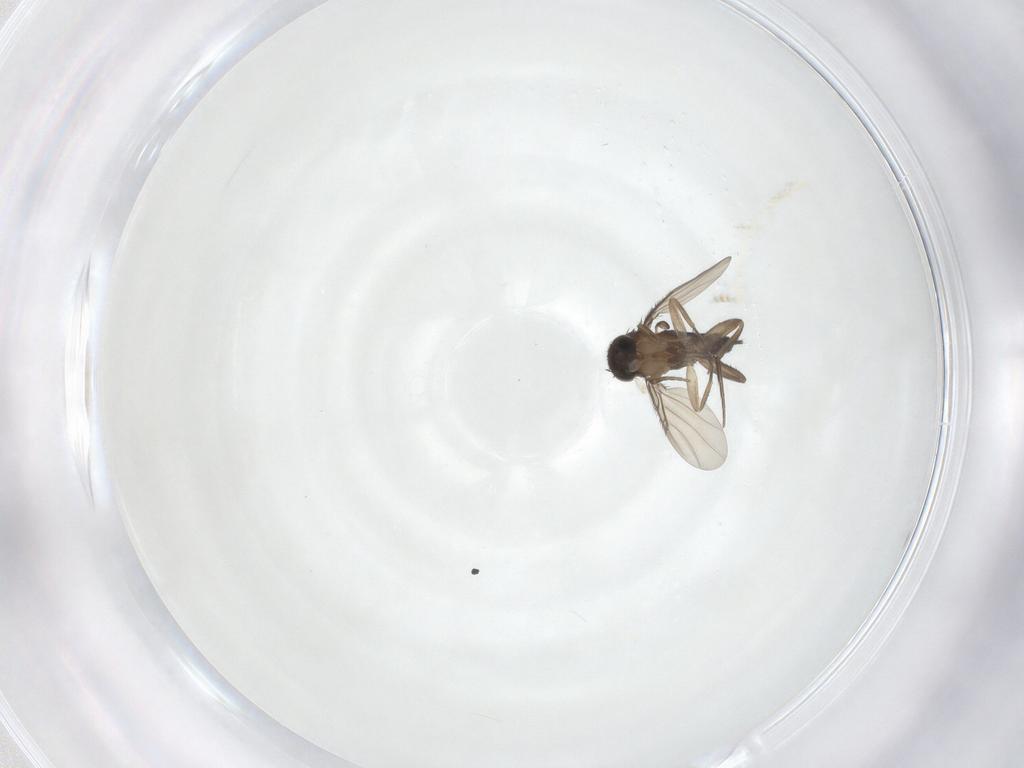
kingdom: Animalia
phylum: Arthropoda
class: Insecta
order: Diptera
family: Phoridae
